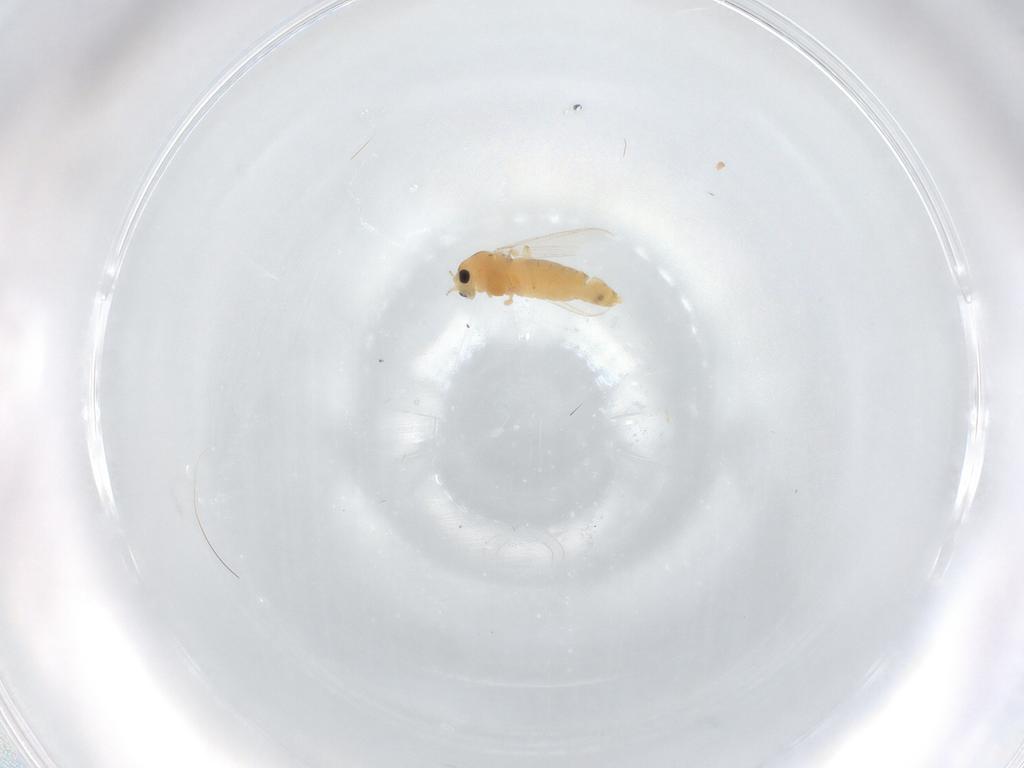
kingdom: Animalia
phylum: Arthropoda
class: Insecta
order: Diptera
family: Chironomidae
